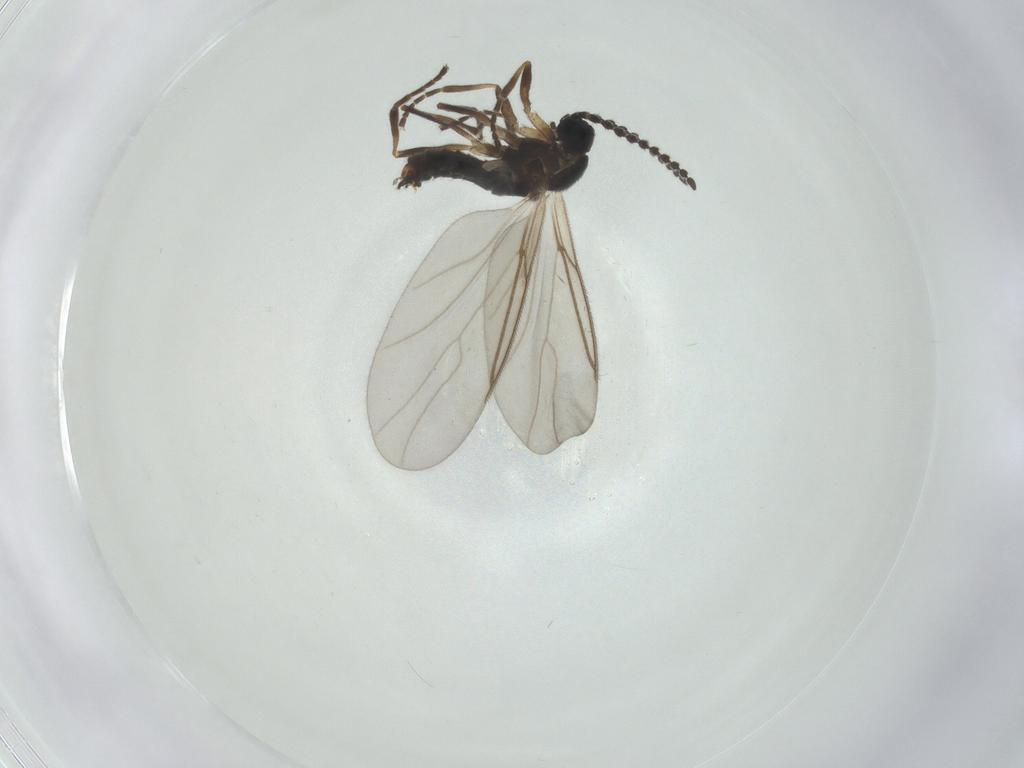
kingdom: Animalia
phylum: Arthropoda
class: Insecta
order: Diptera
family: Scatopsidae
